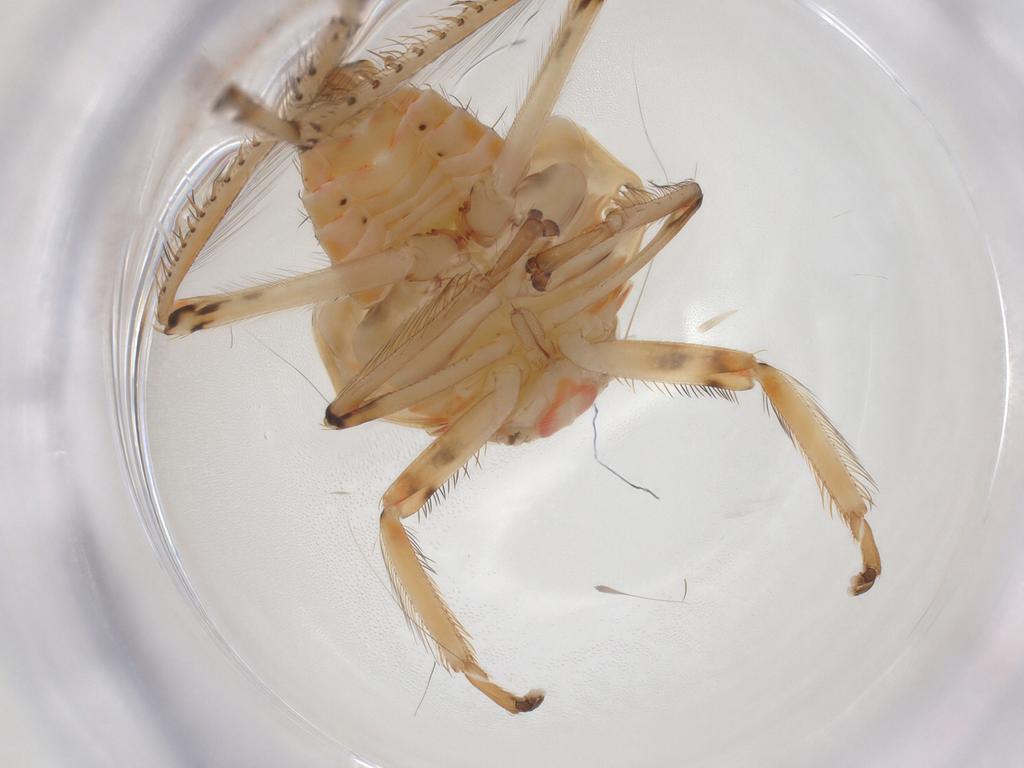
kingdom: Animalia
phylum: Arthropoda
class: Insecta
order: Hemiptera
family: Cicadellidae
